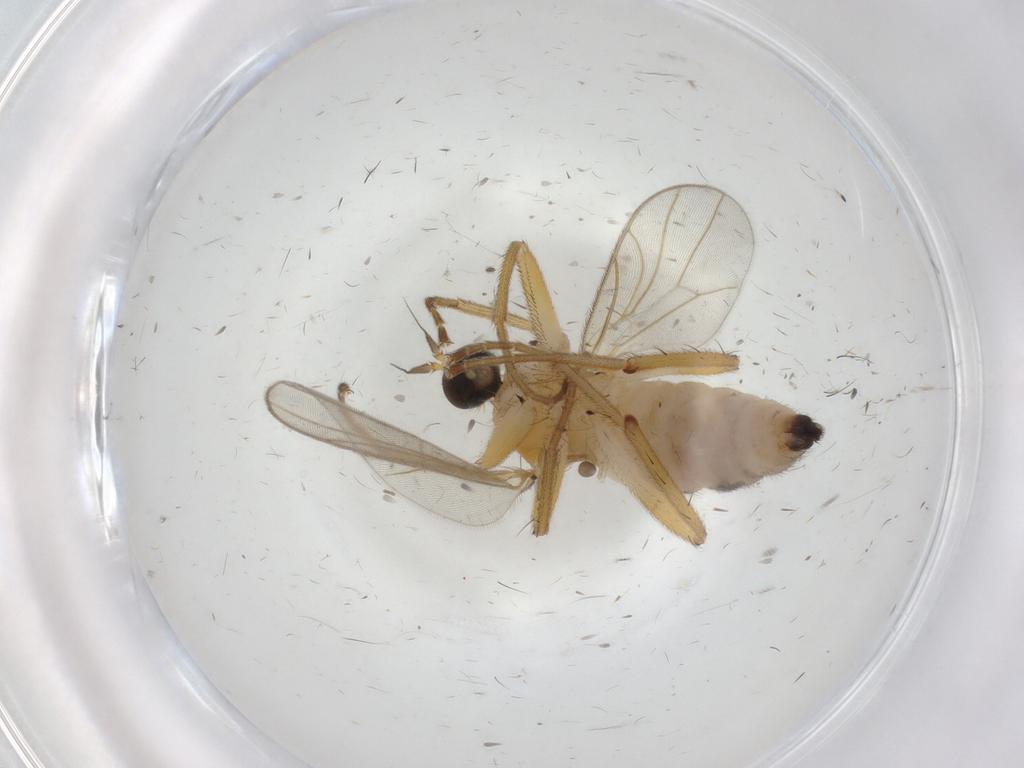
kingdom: Animalia
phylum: Arthropoda
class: Insecta
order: Diptera
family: Hybotidae
